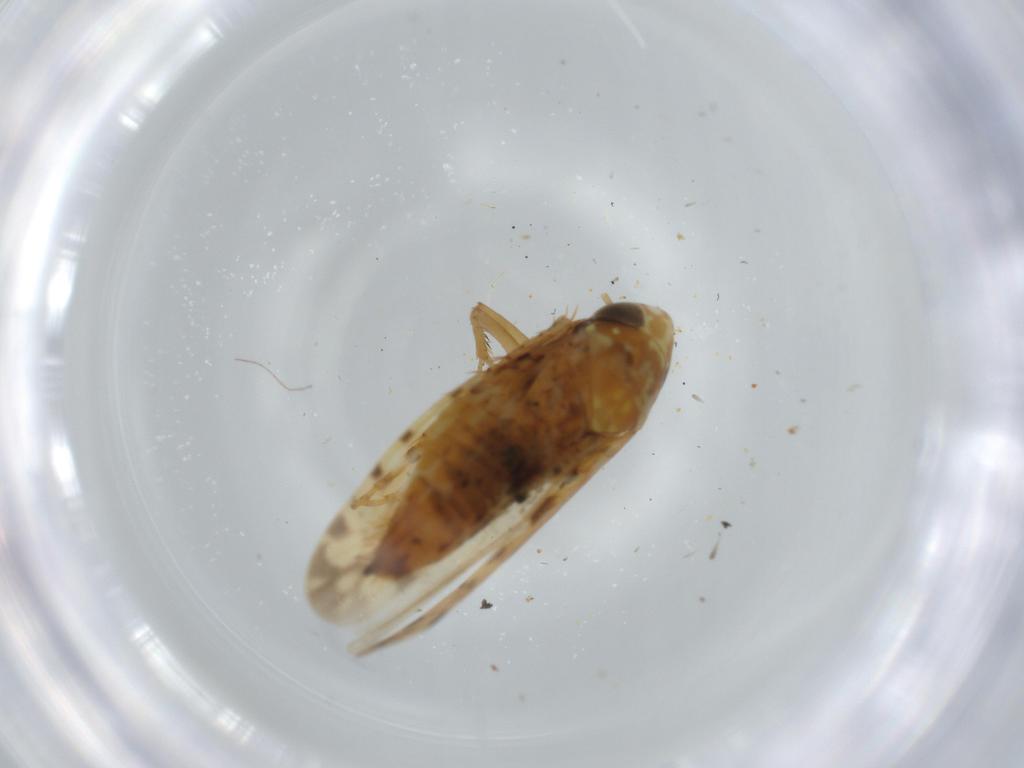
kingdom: Animalia
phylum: Arthropoda
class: Insecta
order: Hemiptera
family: Cicadellidae
